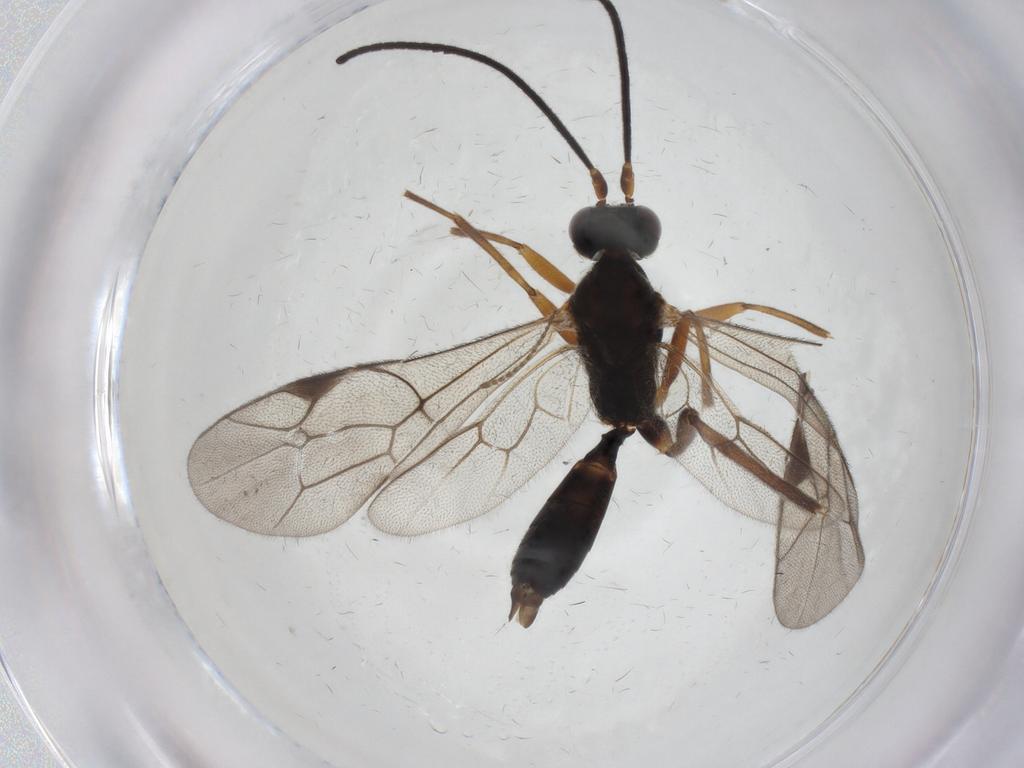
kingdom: Animalia
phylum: Arthropoda
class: Insecta
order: Hymenoptera
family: Ichneumonidae
